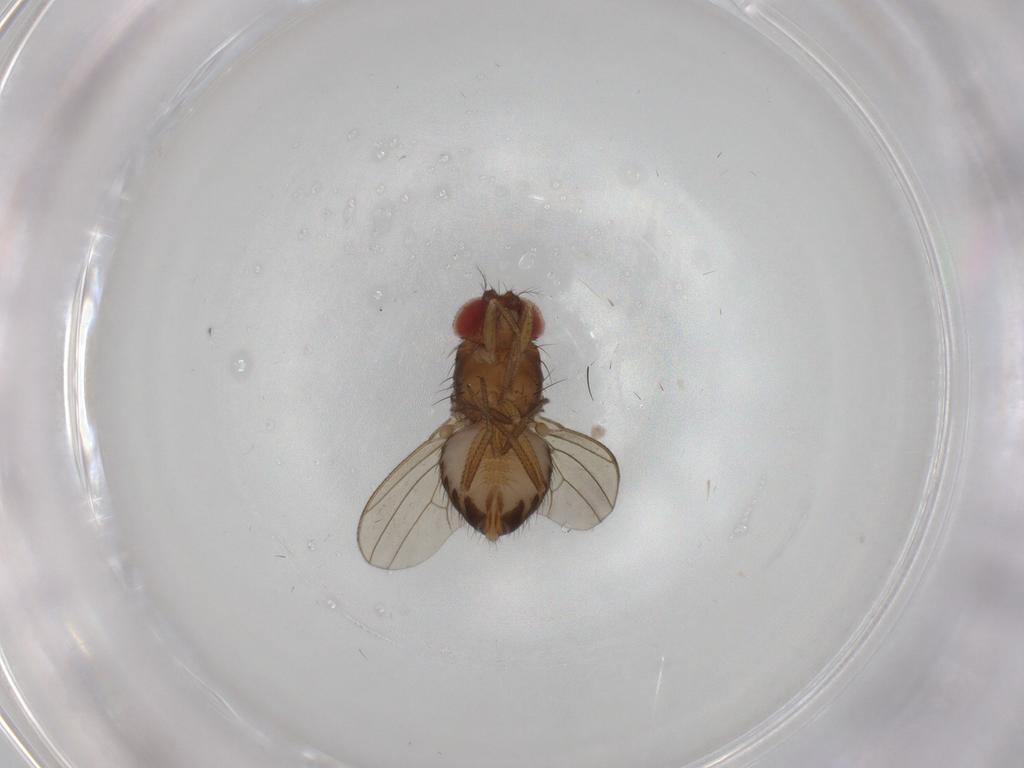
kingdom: Animalia
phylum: Arthropoda
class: Insecta
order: Diptera
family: Drosophilidae
